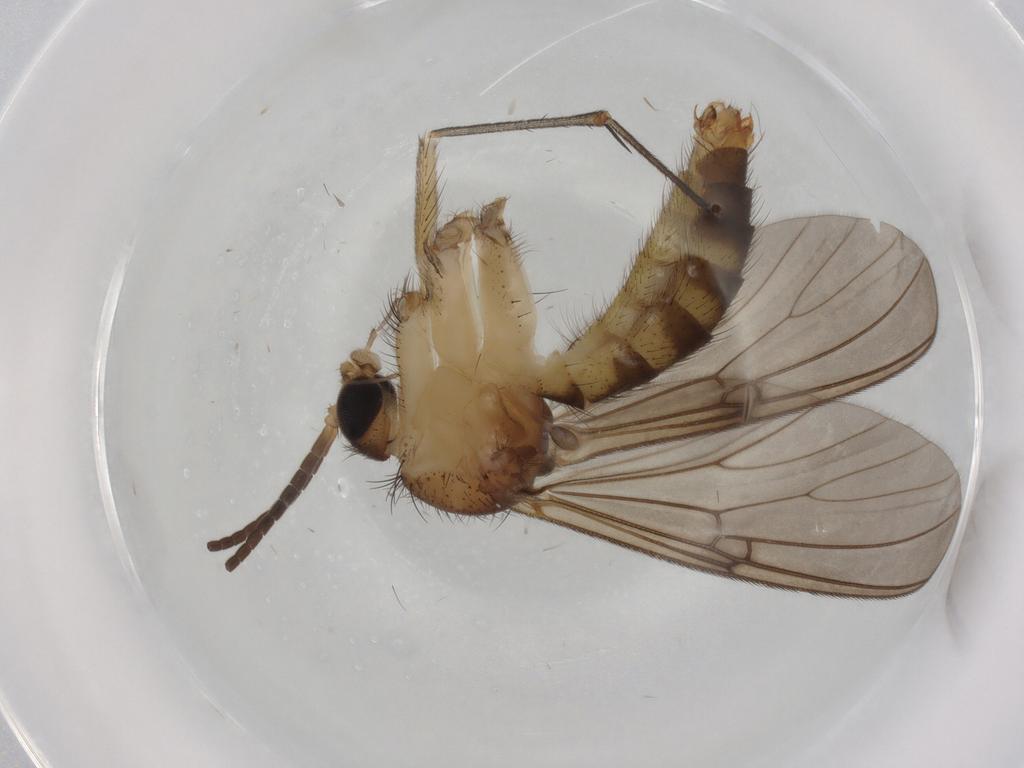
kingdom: Animalia
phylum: Arthropoda
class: Insecta
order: Diptera
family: Mycetophilidae
